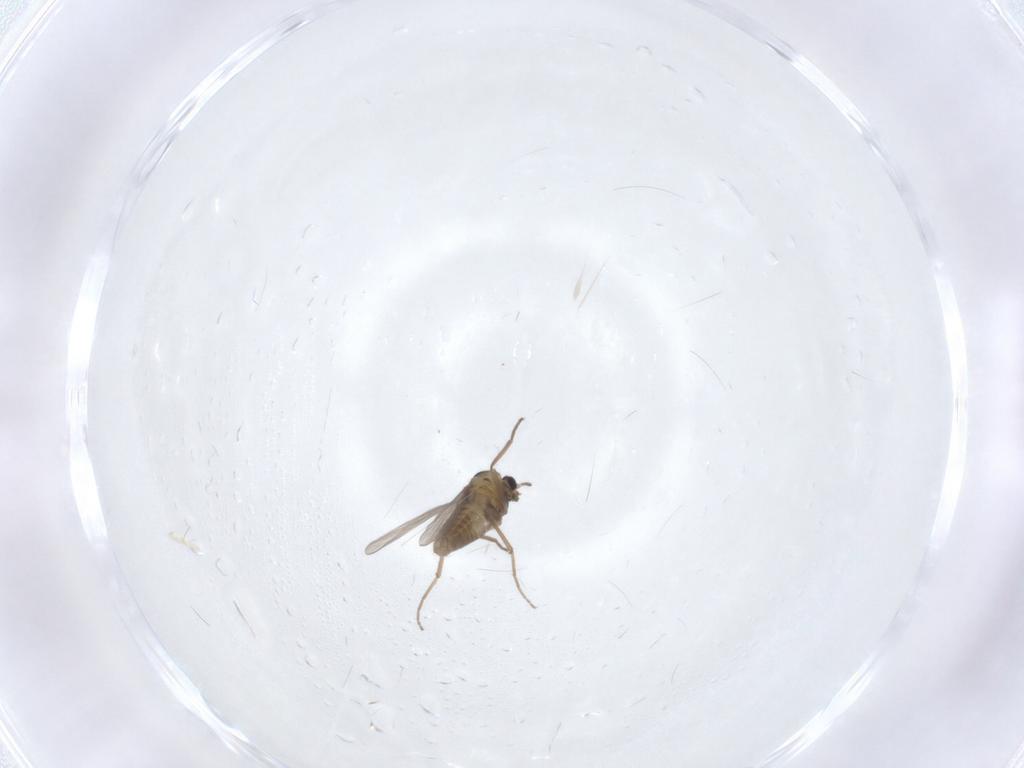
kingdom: Animalia
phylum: Arthropoda
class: Insecta
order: Diptera
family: Chironomidae
